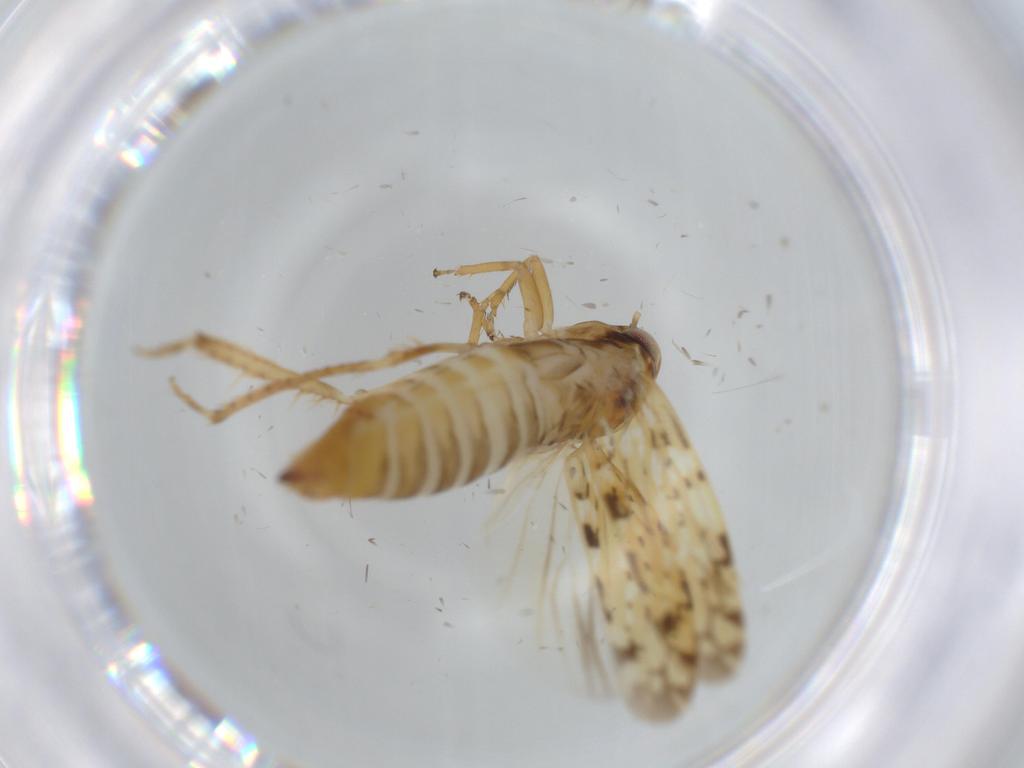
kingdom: Animalia
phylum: Arthropoda
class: Insecta
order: Hemiptera
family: Cicadellidae
